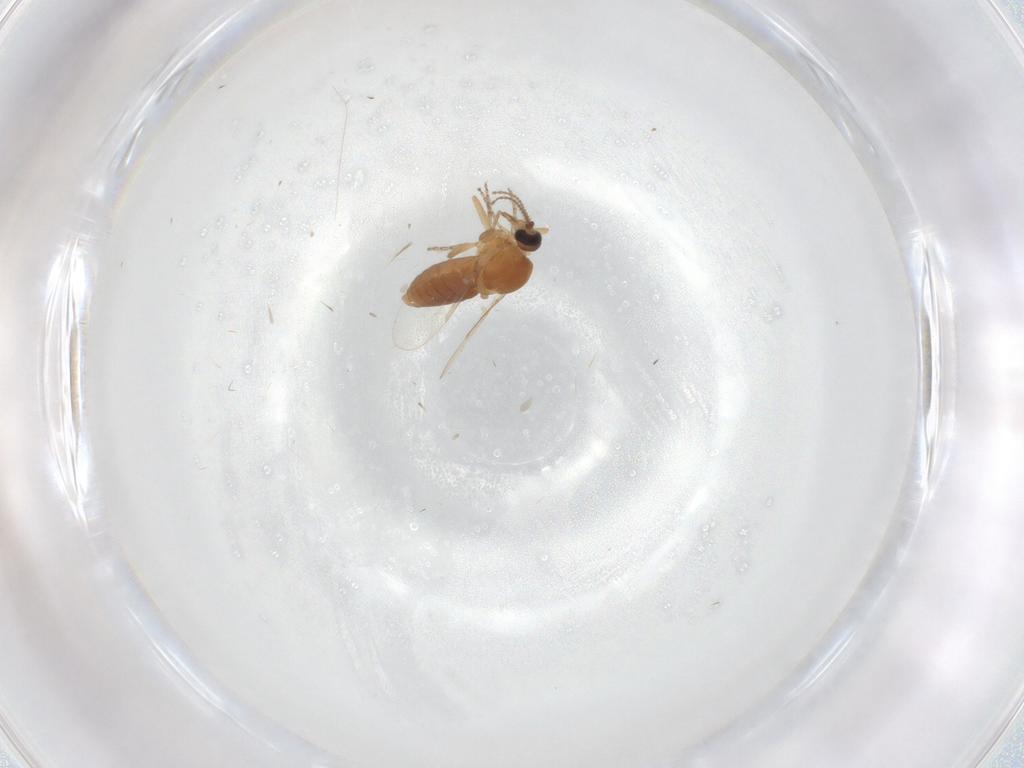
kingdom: Animalia
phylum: Arthropoda
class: Insecta
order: Diptera
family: Ceratopogonidae
